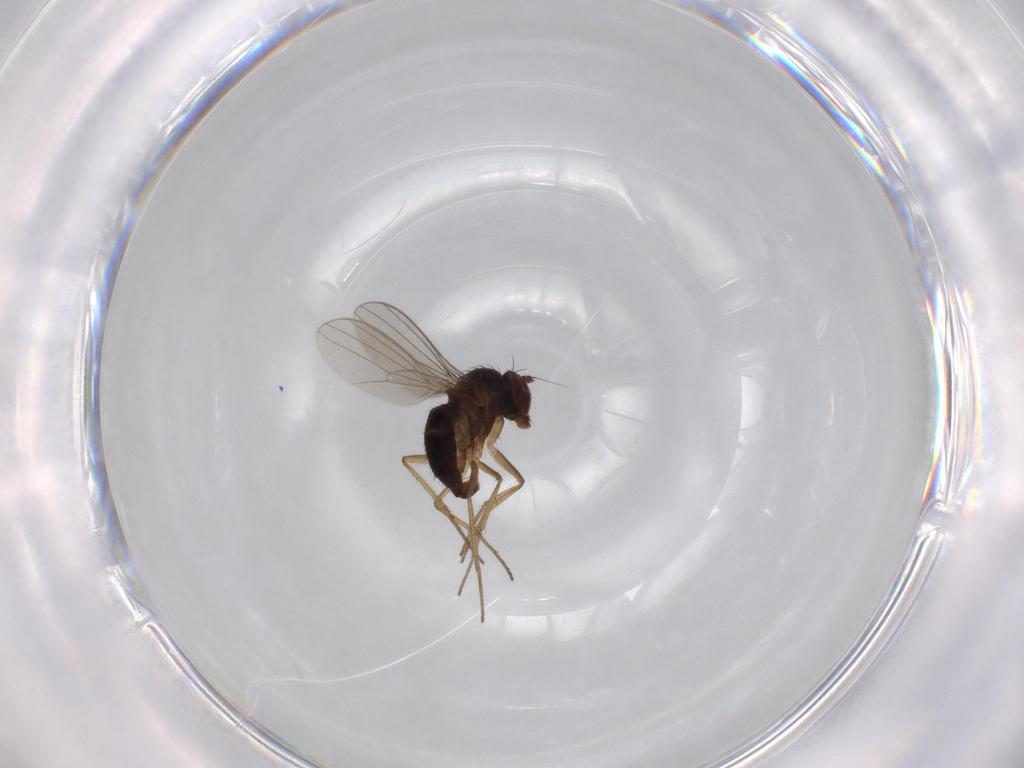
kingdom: Animalia
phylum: Arthropoda
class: Insecta
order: Diptera
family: Dolichopodidae
